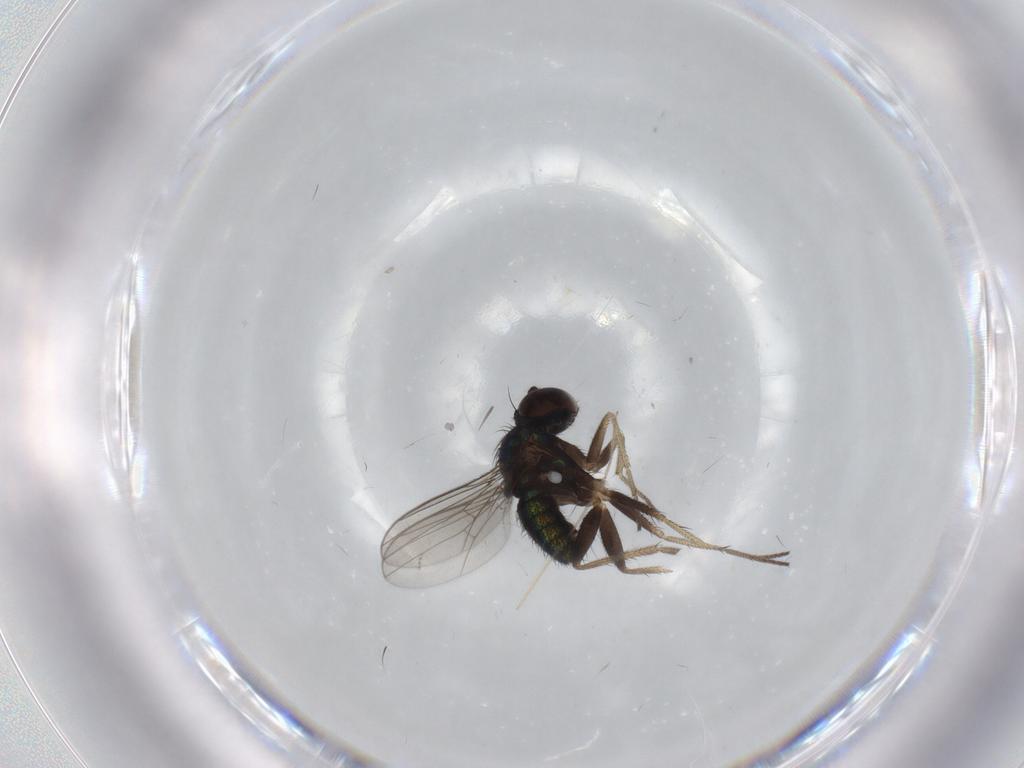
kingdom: Animalia
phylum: Arthropoda
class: Insecta
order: Diptera
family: Dolichopodidae
